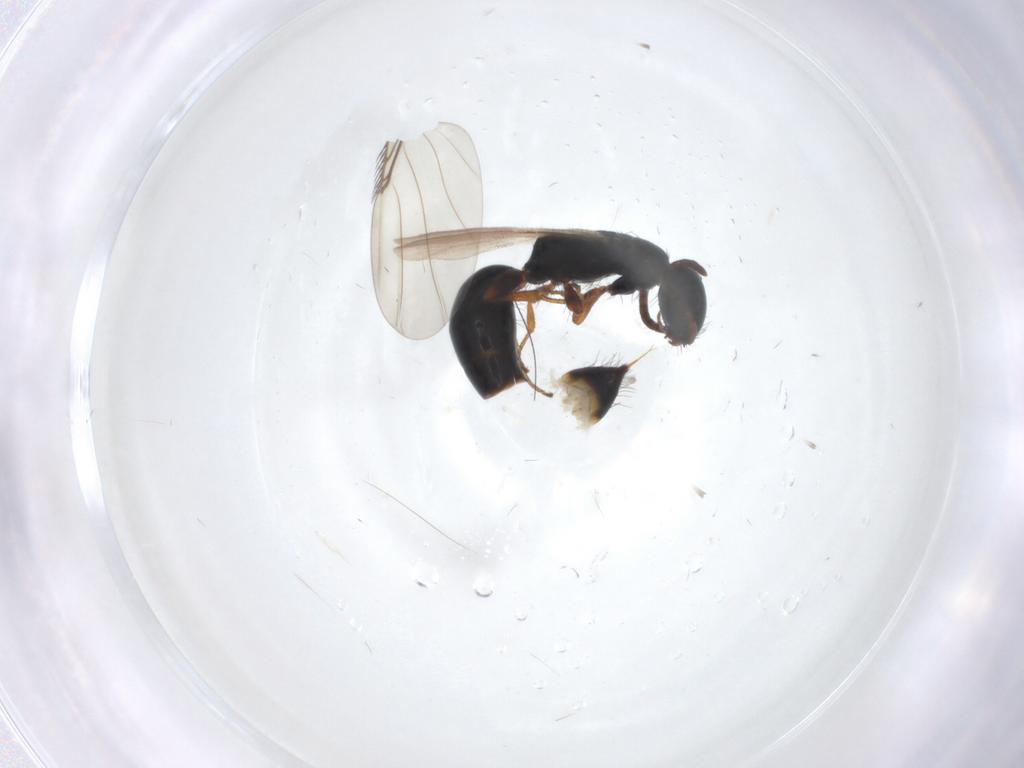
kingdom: Animalia
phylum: Arthropoda
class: Insecta
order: Hymenoptera
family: Bethylidae
